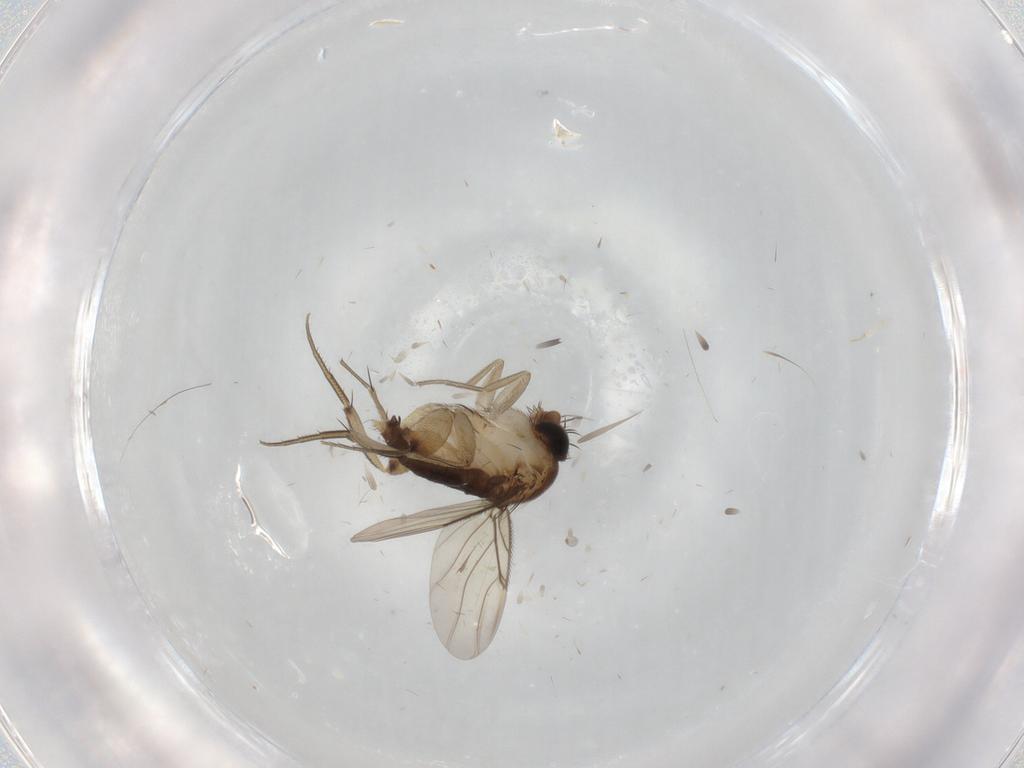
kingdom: Animalia
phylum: Arthropoda
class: Insecta
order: Diptera
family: Phoridae
